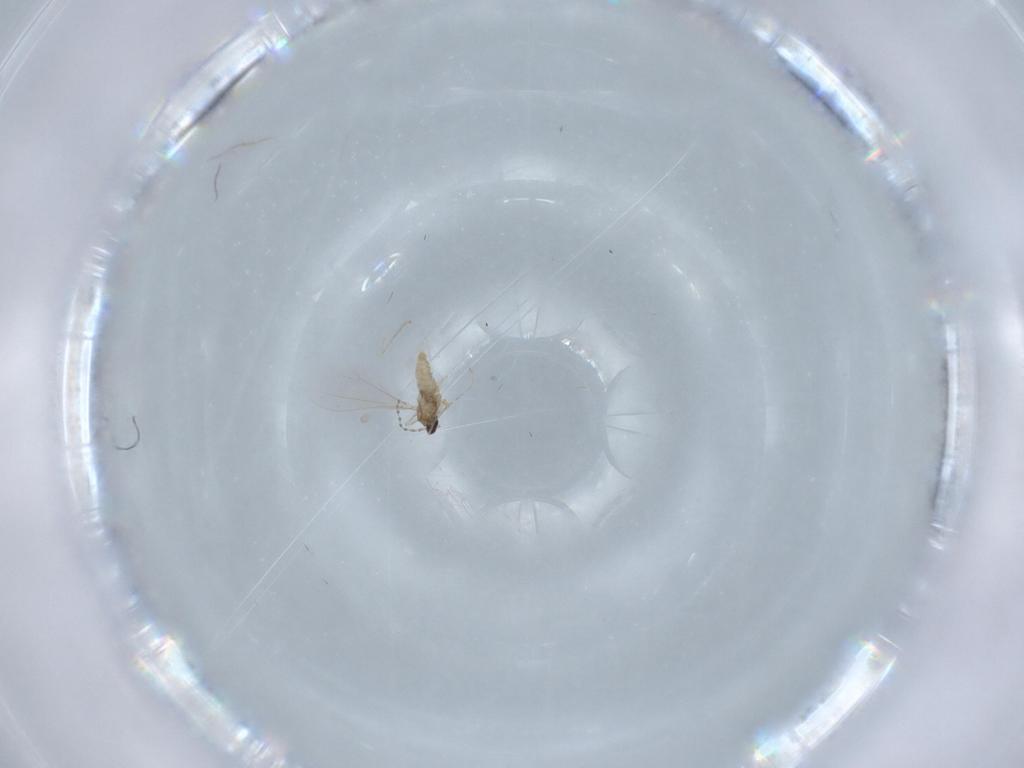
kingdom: Animalia
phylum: Arthropoda
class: Insecta
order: Diptera
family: Cecidomyiidae
